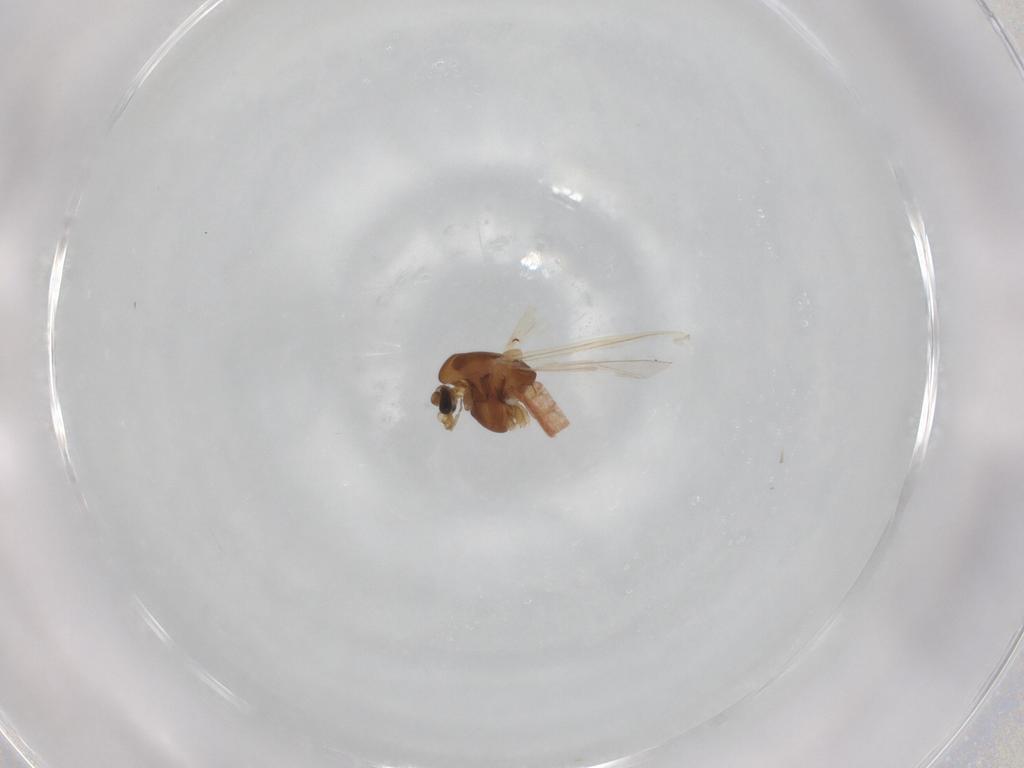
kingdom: Animalia
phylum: Arthropoda
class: Insecta
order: Diptera
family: Chironomidae
